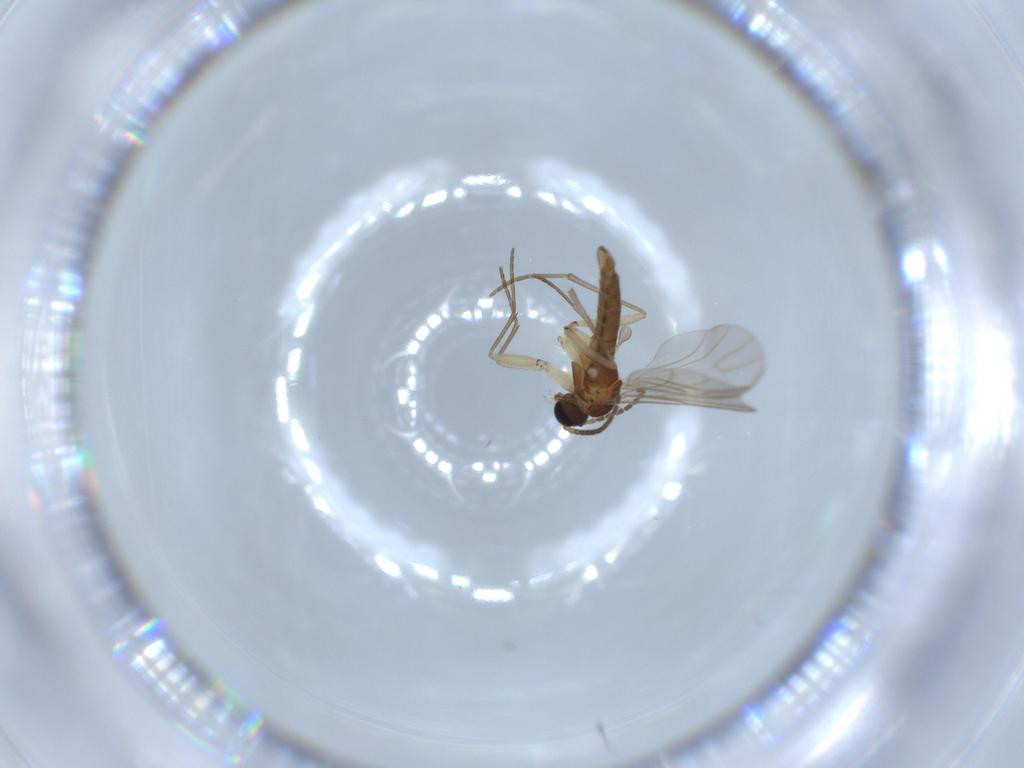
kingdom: Animalia
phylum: Arthropoda
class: Insecta
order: Diptera
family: Sciaridae
